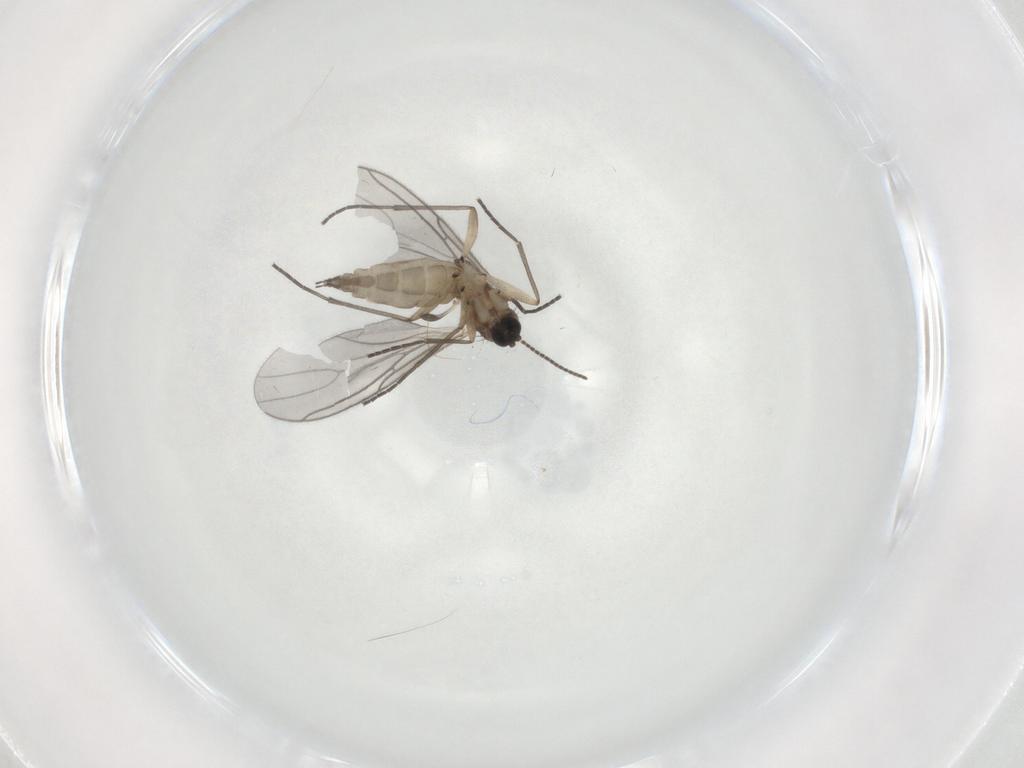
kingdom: Animalia
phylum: Arthropoda
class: Insecta
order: Diptera
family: Sciaridae
